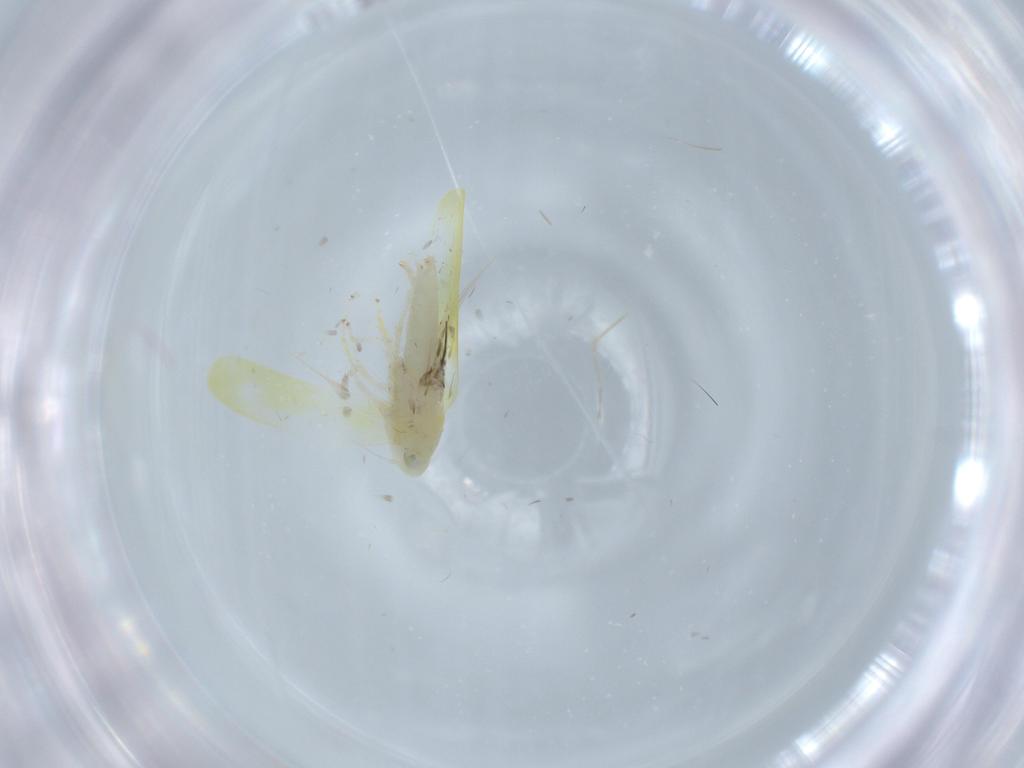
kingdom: Animalia
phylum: Arthropoda
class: Insecta
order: Hemiptera
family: Cicadellidae
